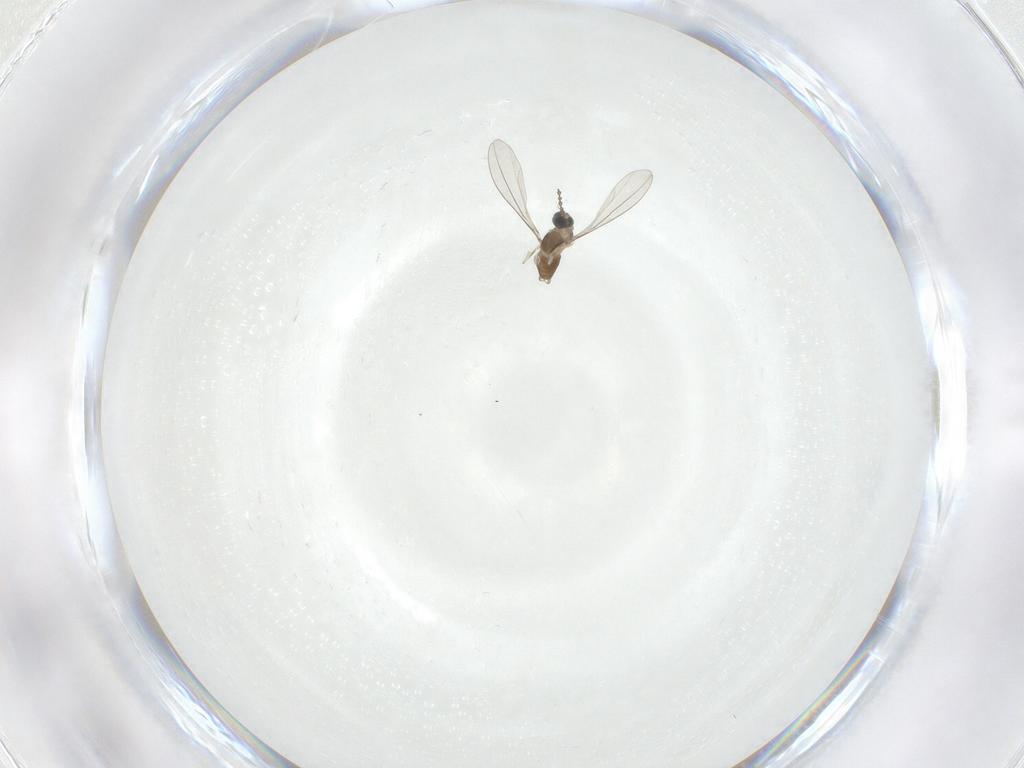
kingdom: Animalia
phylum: Arthropoda
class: Insecta
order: Diptera
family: Cecidomyiidae
